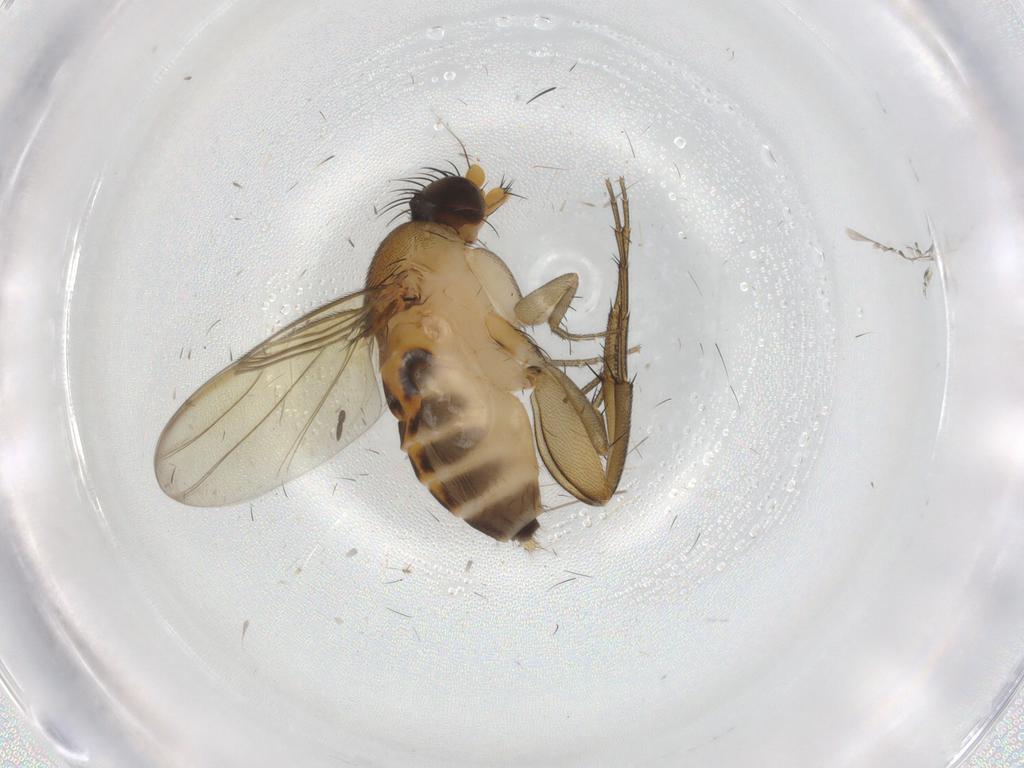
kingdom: Animalia
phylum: Arthropoda
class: Insecta
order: Diptera
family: Phoridae
